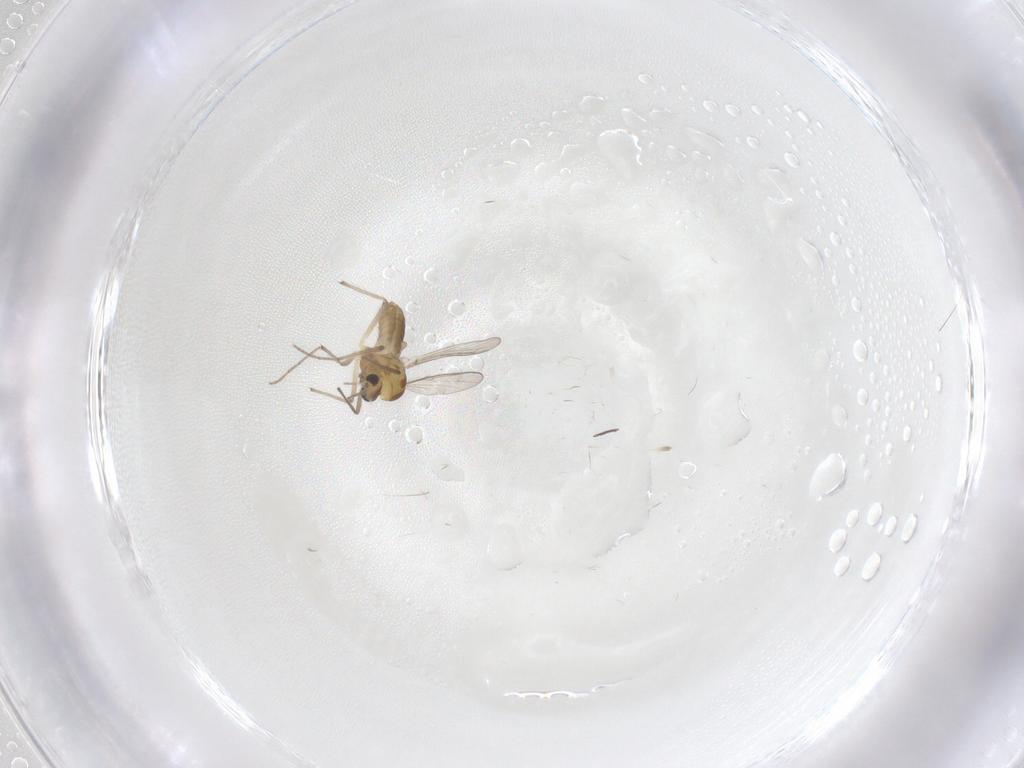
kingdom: Animalia
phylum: Arthropoda
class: Insecta
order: Diptera
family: Chironomidae
